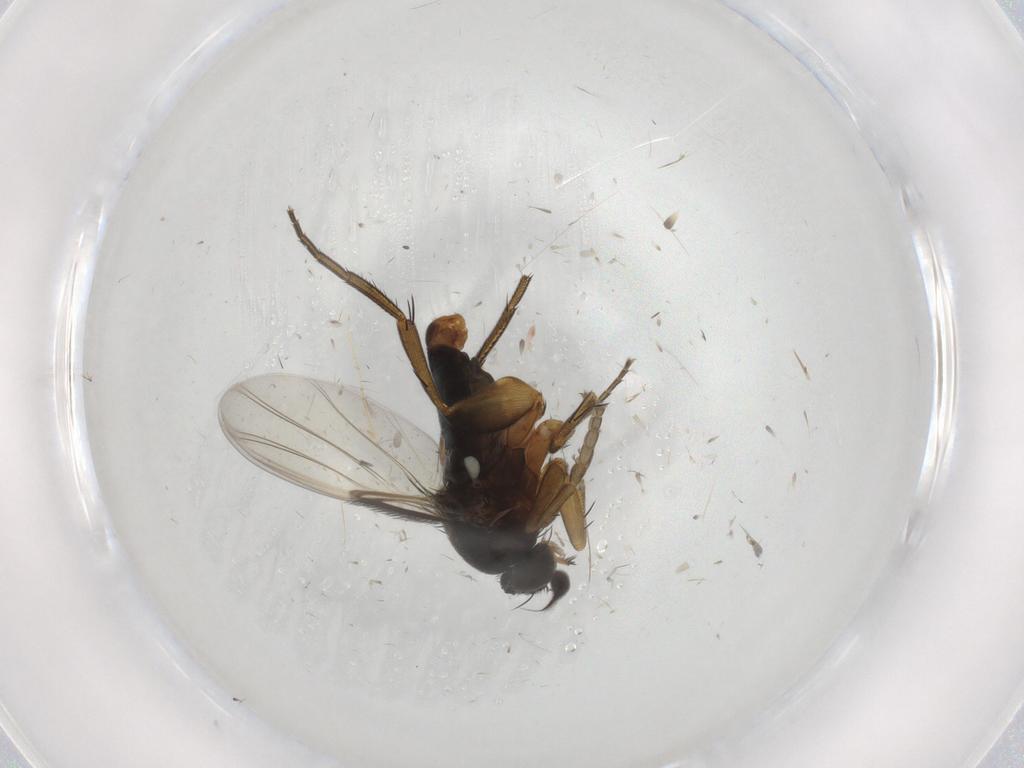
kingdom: Animalia
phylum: Arthropoda
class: Insecta
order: Diptera
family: Phoridae
